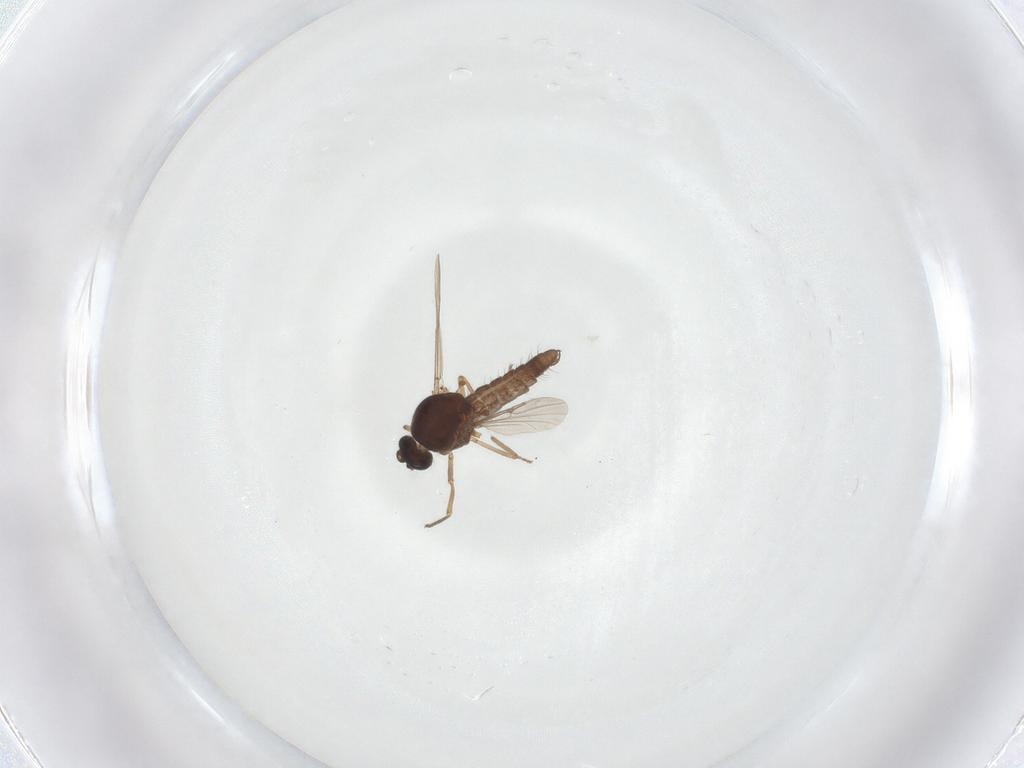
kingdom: Animalia
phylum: Arthropoda
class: Insecta
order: Diptera
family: Ceratopogonidae
